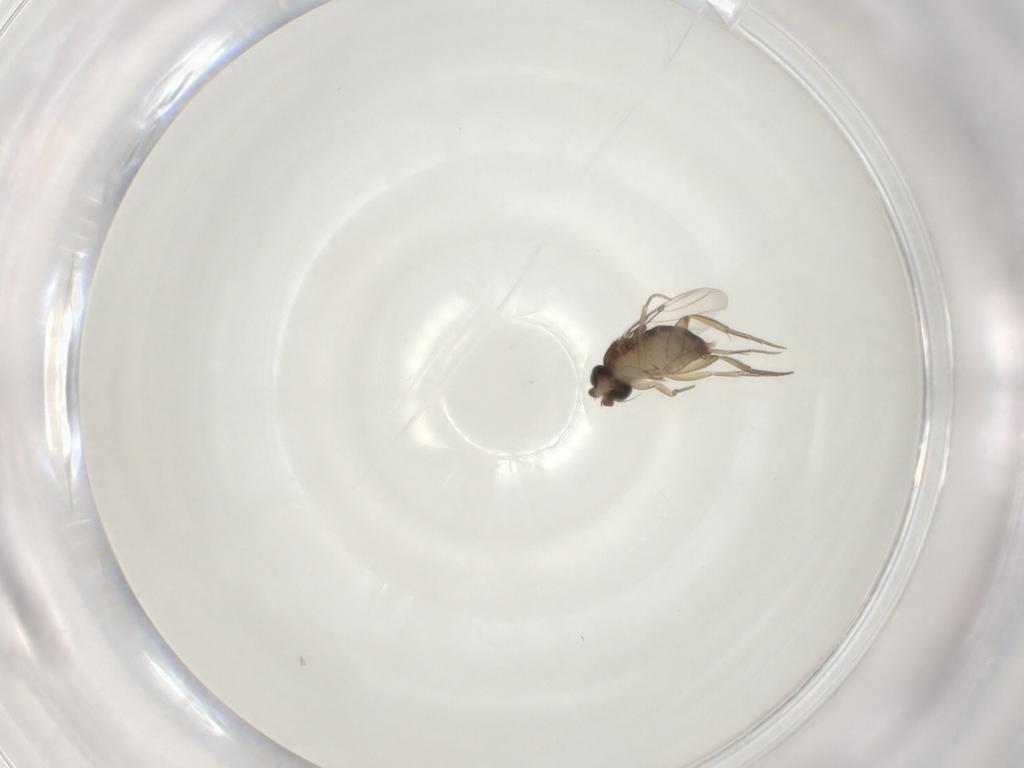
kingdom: Animalia
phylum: Arthropoda
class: Insecta
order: Diptera
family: Phoridae
